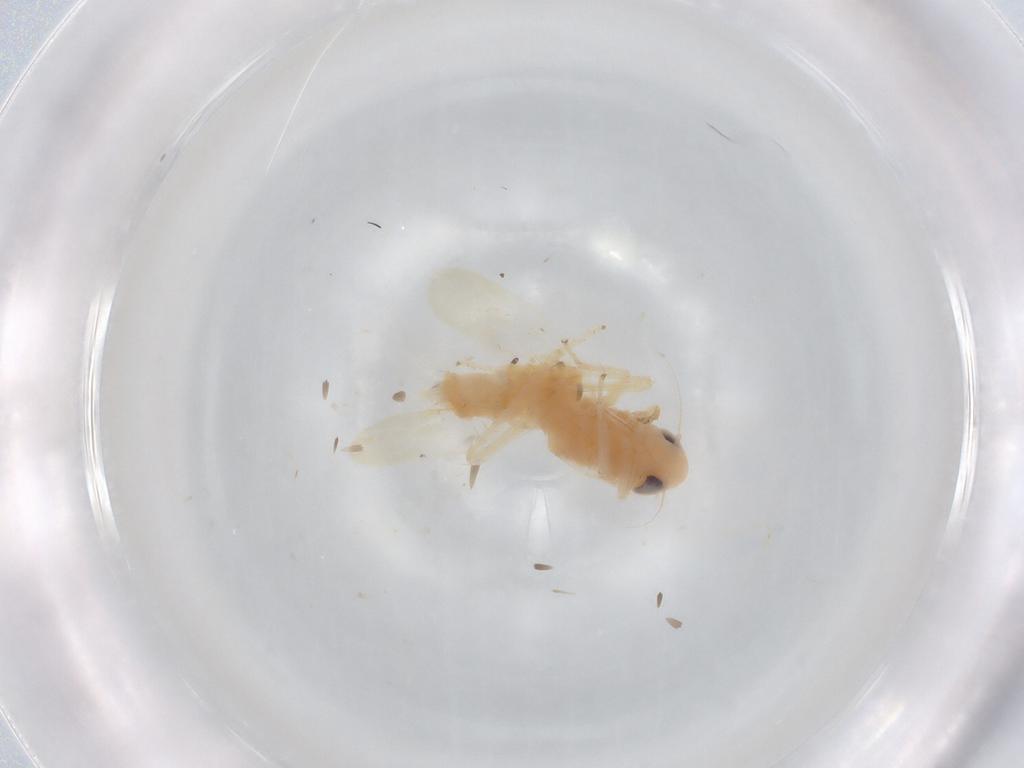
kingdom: Animalia
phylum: Arthropoda
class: Insecta
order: Hemiptera
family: Cicadellidae
